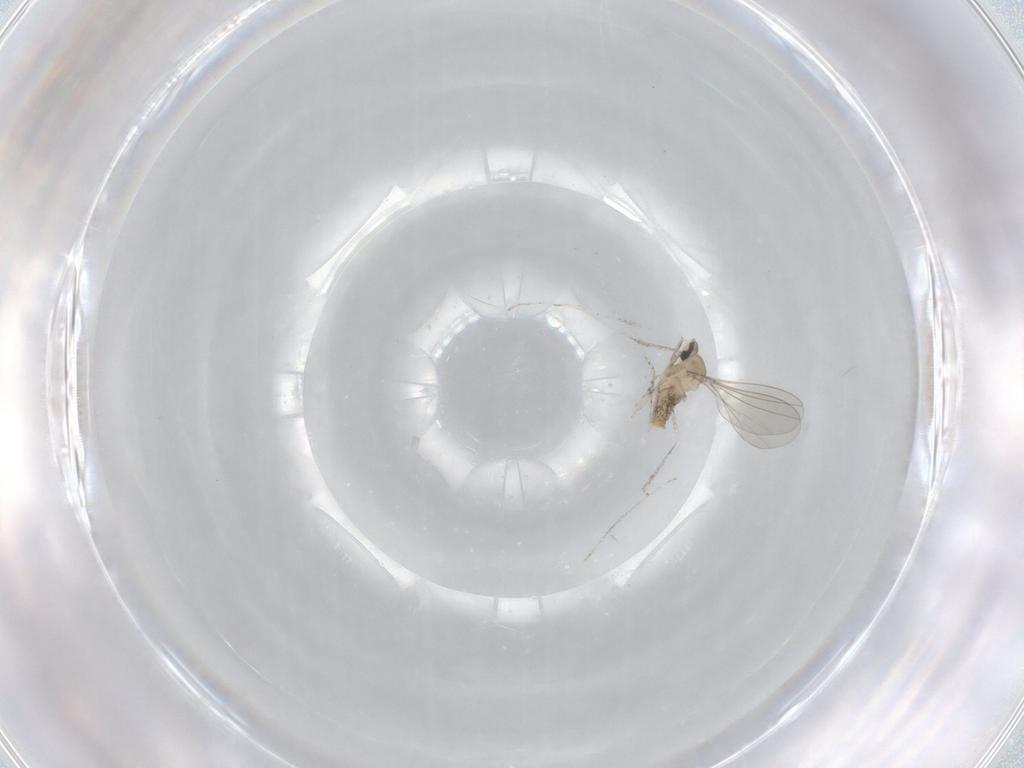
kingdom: Animalia
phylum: Arthropoda
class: Insecta
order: Diptera
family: Cecidomyiidae
